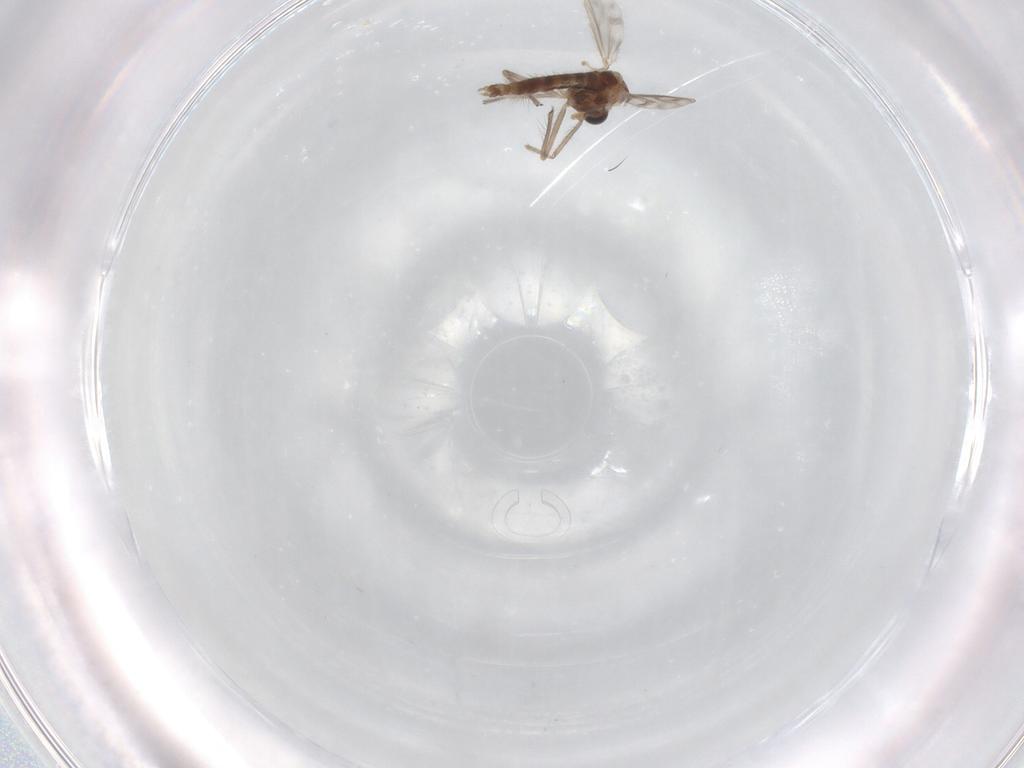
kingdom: Animalia
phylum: Arthropoda
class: Insecta
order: Diptera
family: Chironomidae
